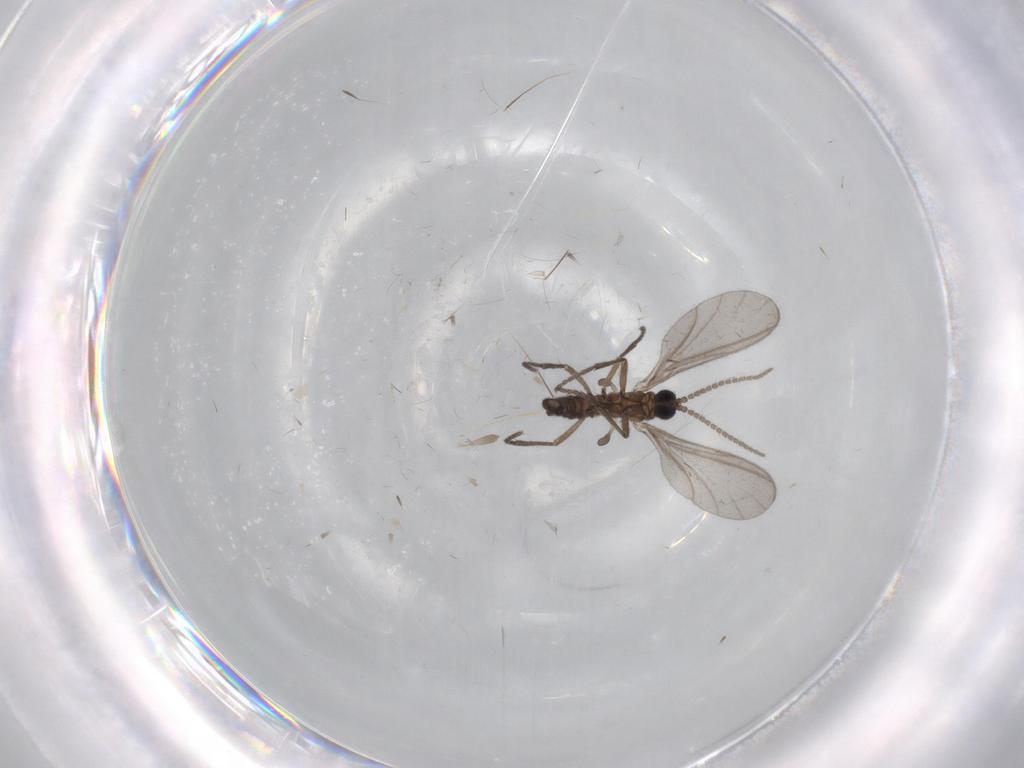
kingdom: Animalia
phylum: Arthropoda
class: Insecta
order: Diptera
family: Sciaridae
